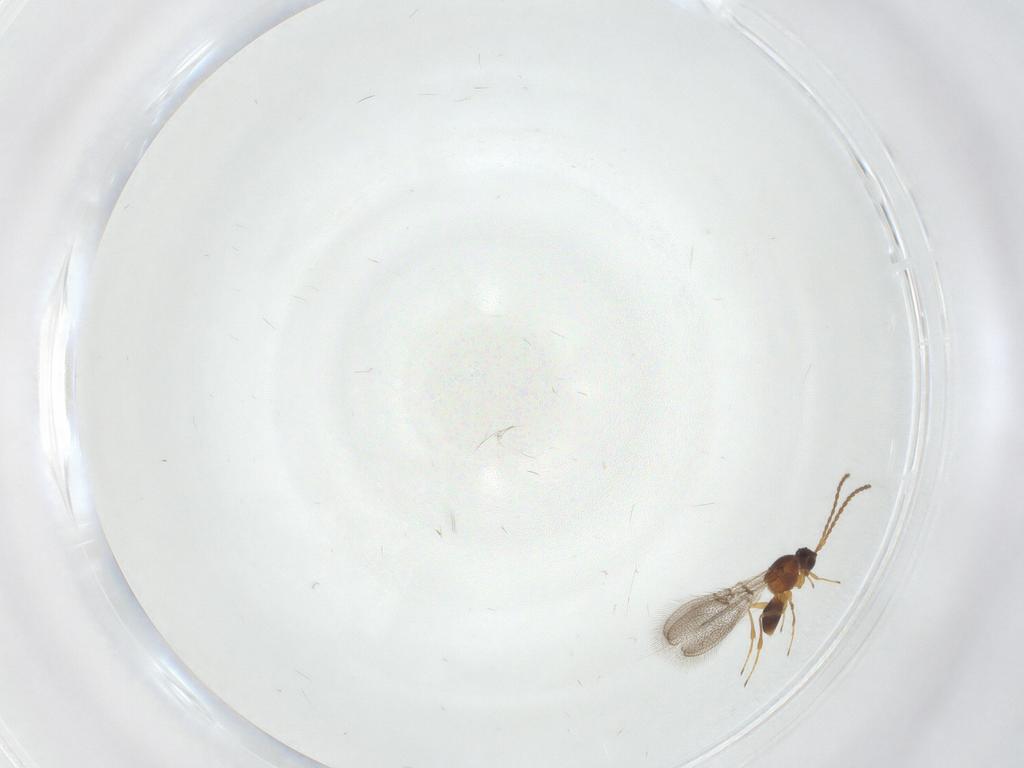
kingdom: Animalia
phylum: Arthropoda
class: Insecta
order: Hymenoptera
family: Figitidae
